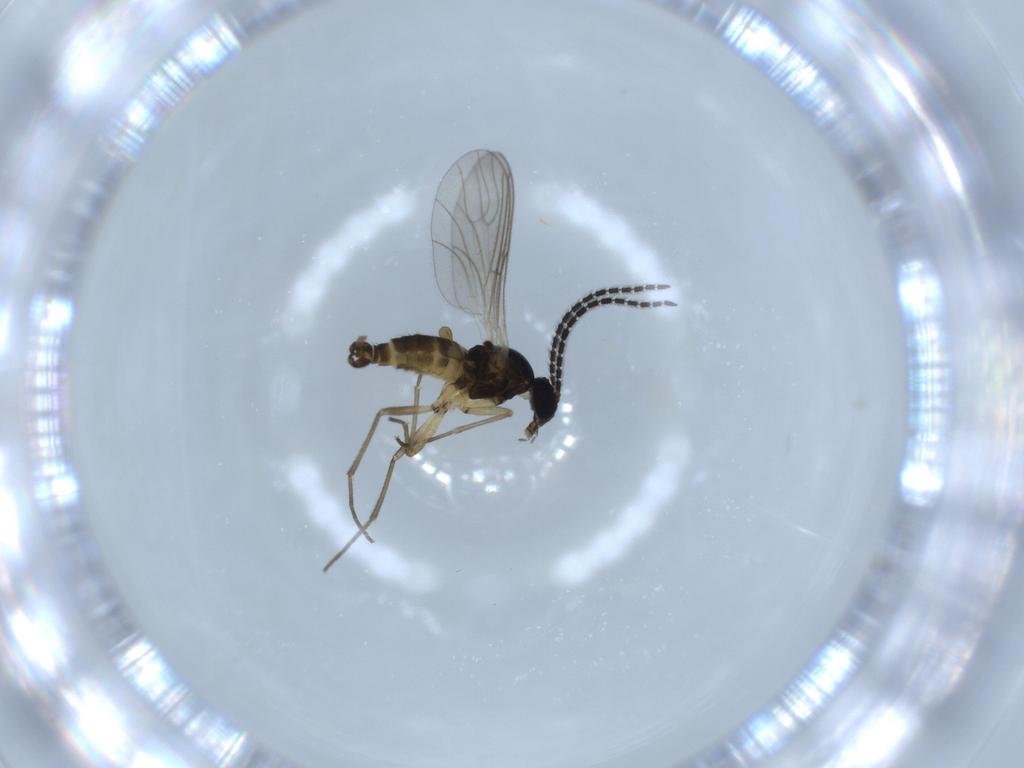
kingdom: Animalia
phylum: Arthropoda
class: Insecta
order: Diptera
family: Sciaridae
